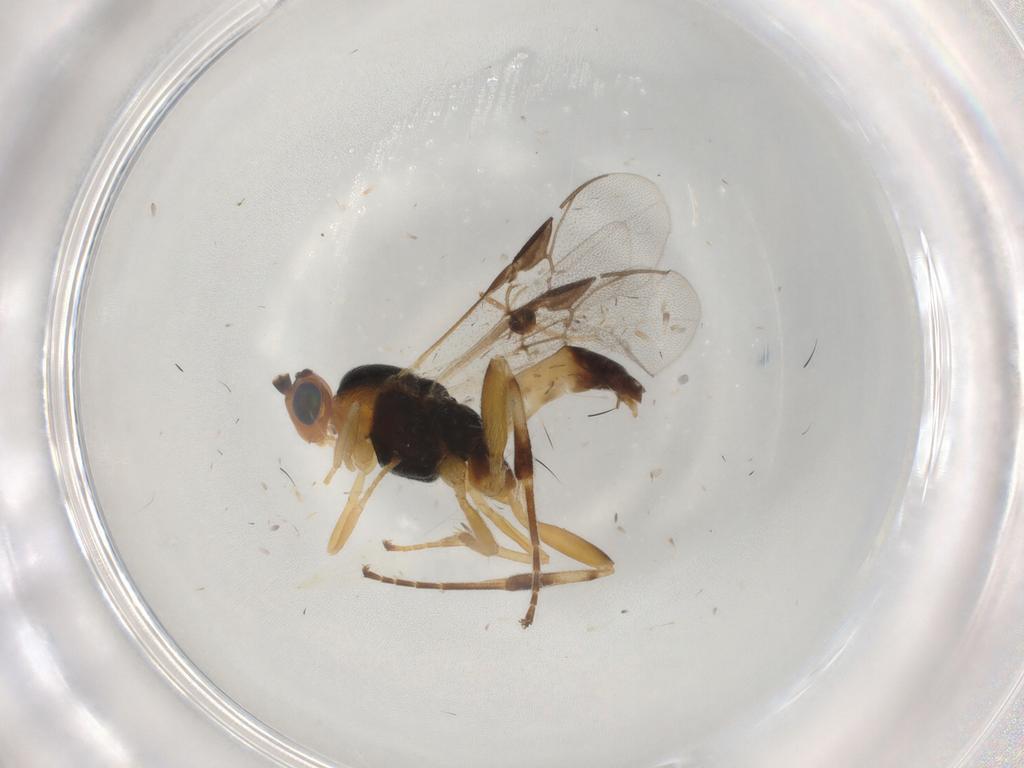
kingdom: Animalia
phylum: Arthropoda
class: Insecta
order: Hymenoptera
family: Braconidae
